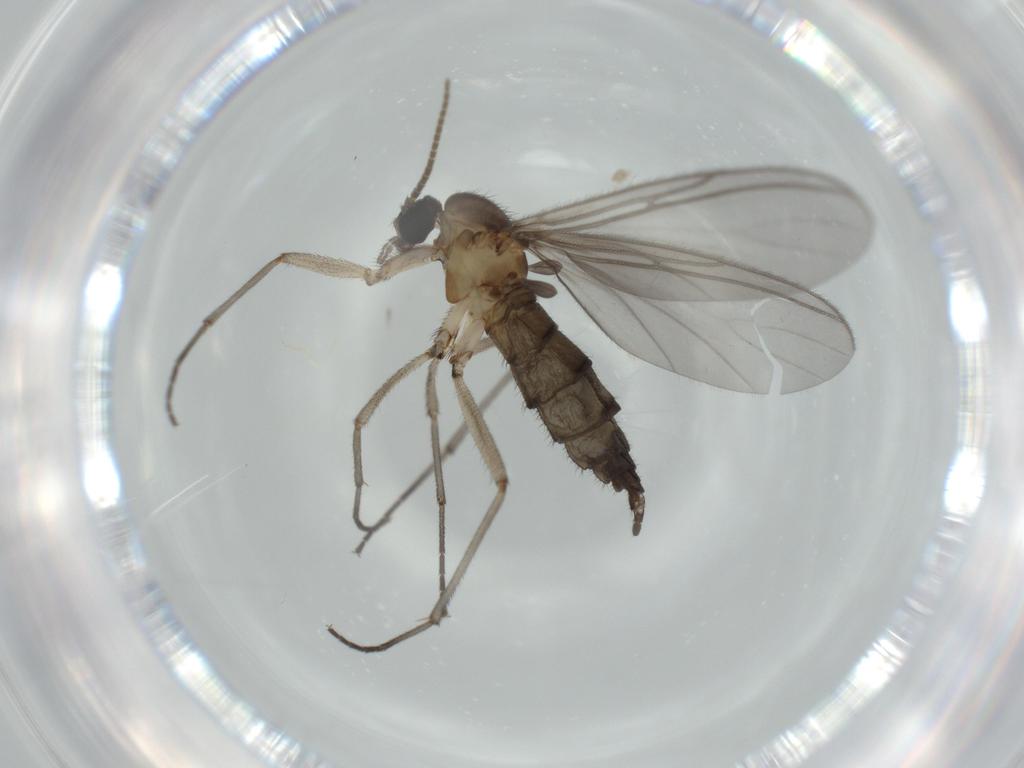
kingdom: Animalia
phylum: Arthropoda
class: Insecta
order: Diptera
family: Sciaridae
